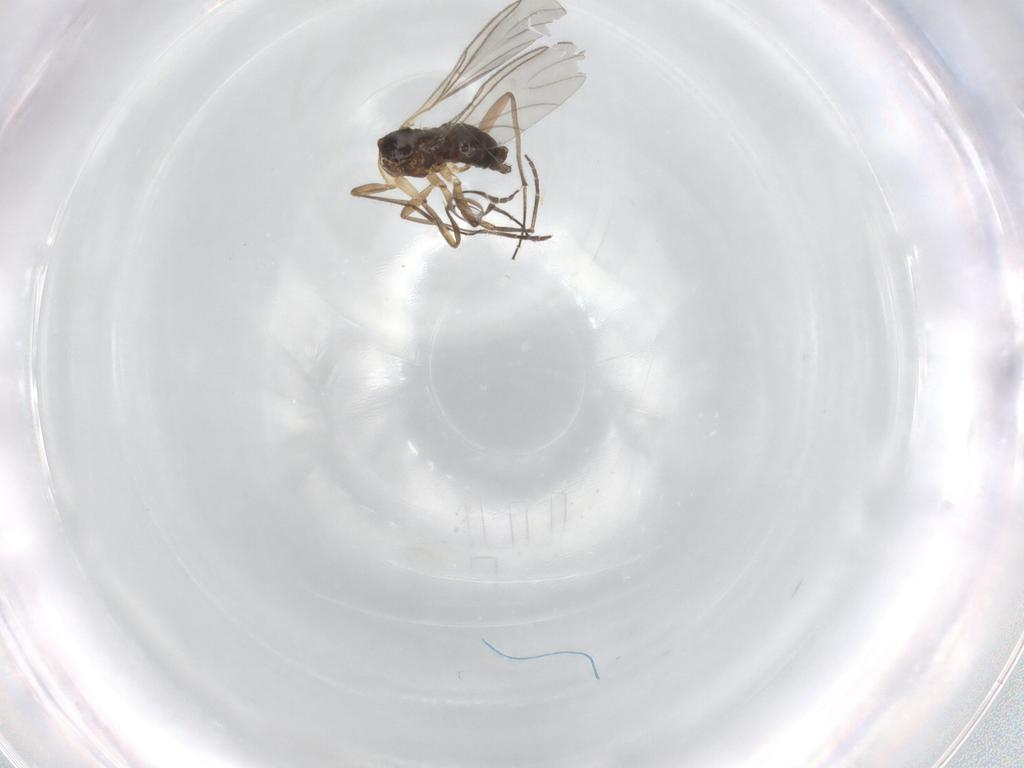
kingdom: Animalia
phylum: Arthropoda
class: Insecta
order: Diptera
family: Sciaridae
